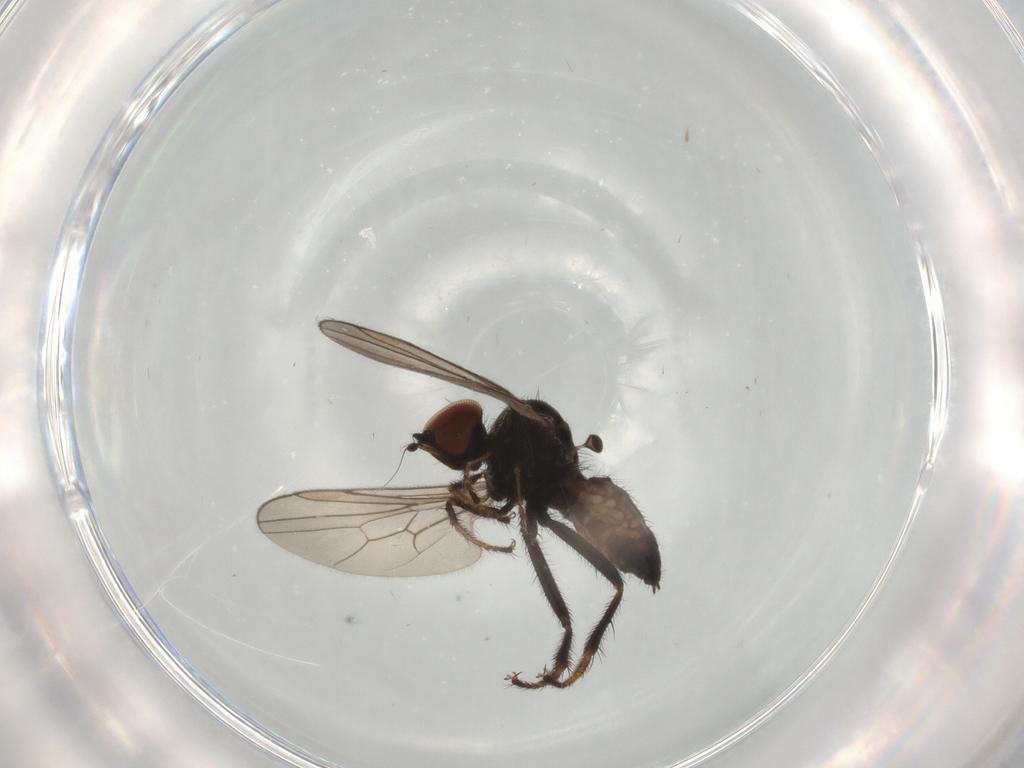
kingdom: Animalia
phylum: Arthropoda
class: Insecta
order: Diptera
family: Hybotidae
